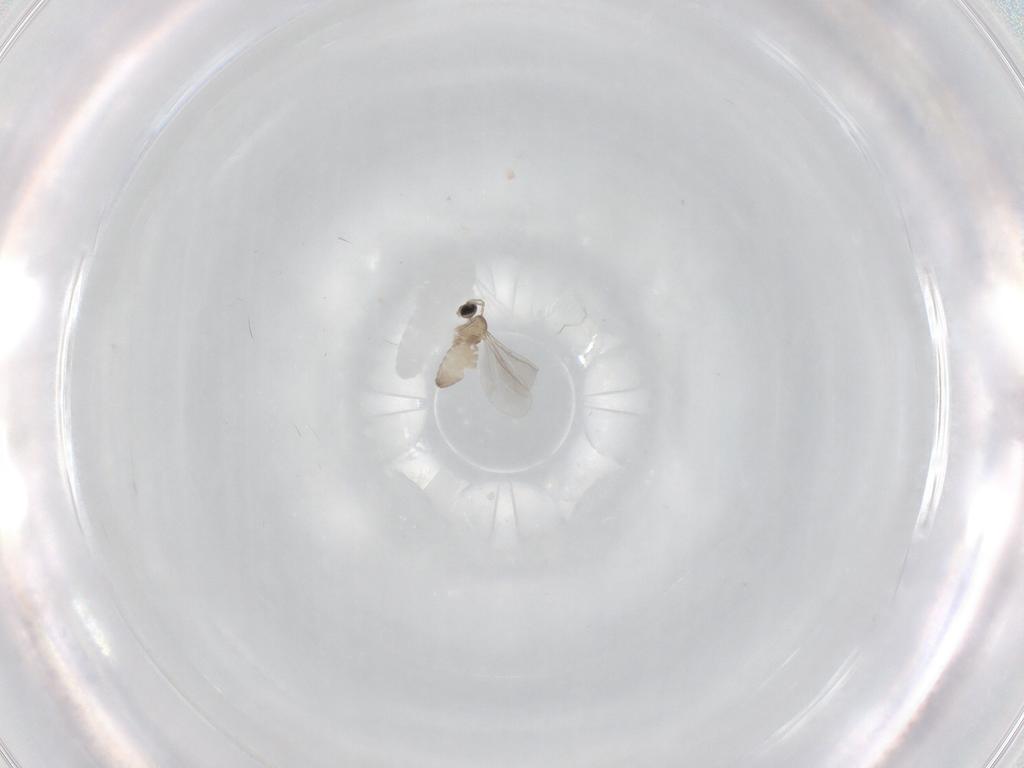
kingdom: Animalia
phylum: Arthropoda
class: Insecta
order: Diptera
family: Cecidomyiidae
